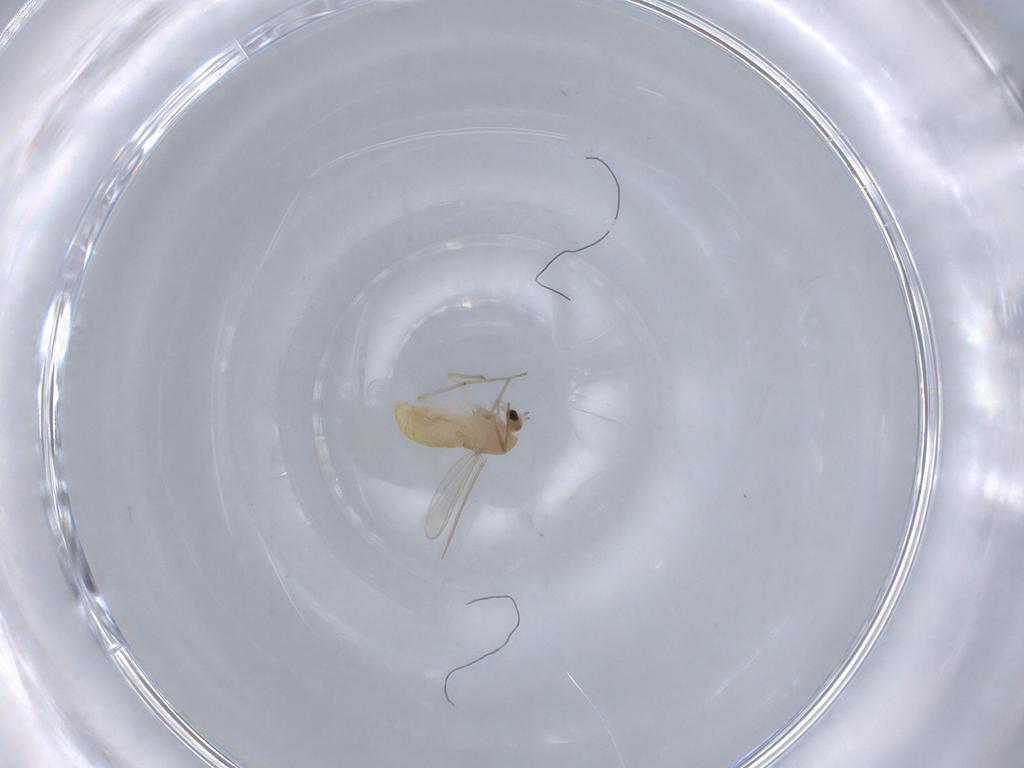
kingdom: Animalia
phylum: Arthropoda
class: Insecta
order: Diptera
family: Chironomidae
